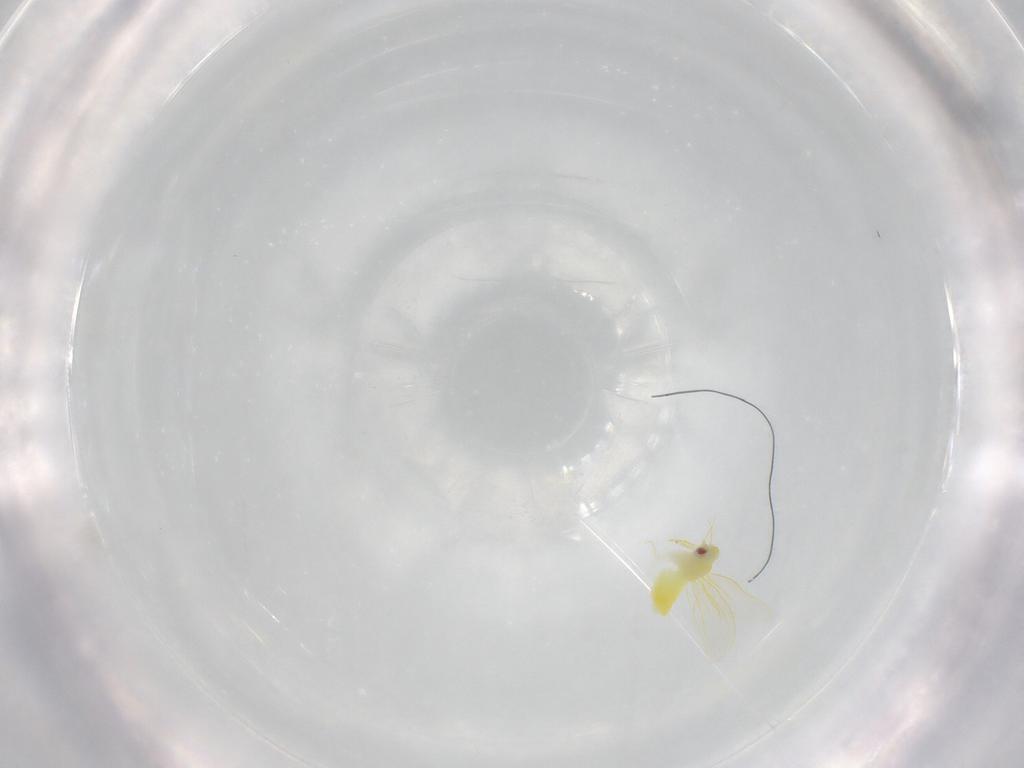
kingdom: Animalia
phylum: Arthropoda
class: Insecta
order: Hemiptera
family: Aleyrodidae
